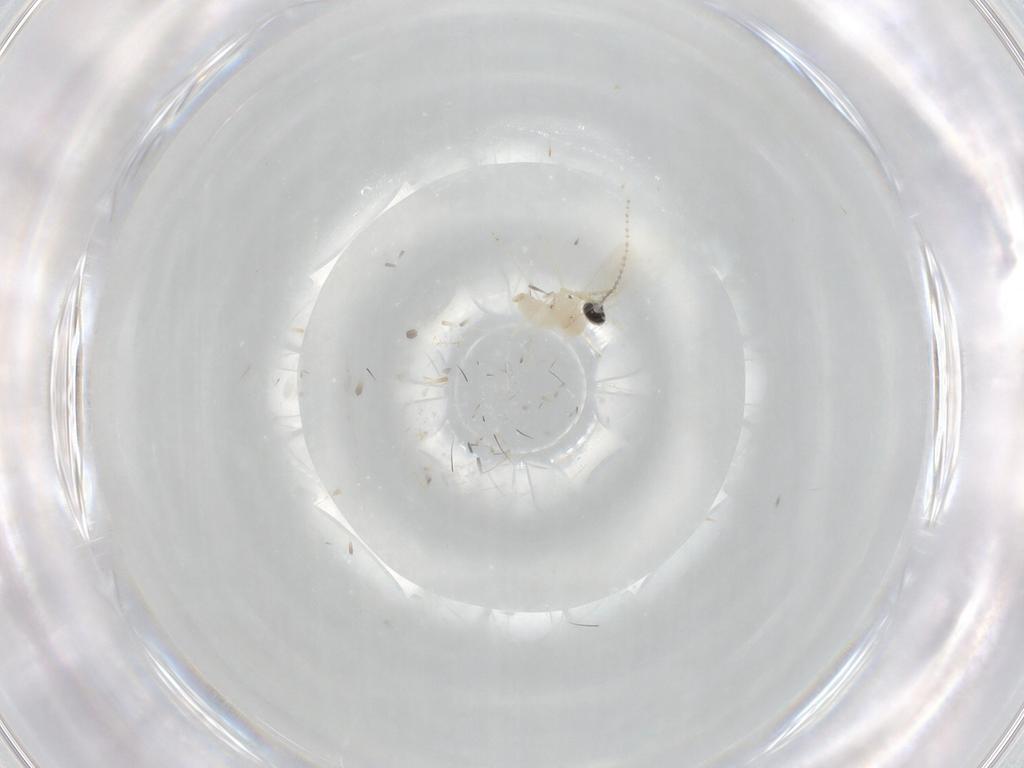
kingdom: Animalia
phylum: Arthropoda
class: Insecta
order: Diptera
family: Cecidomyiidae
